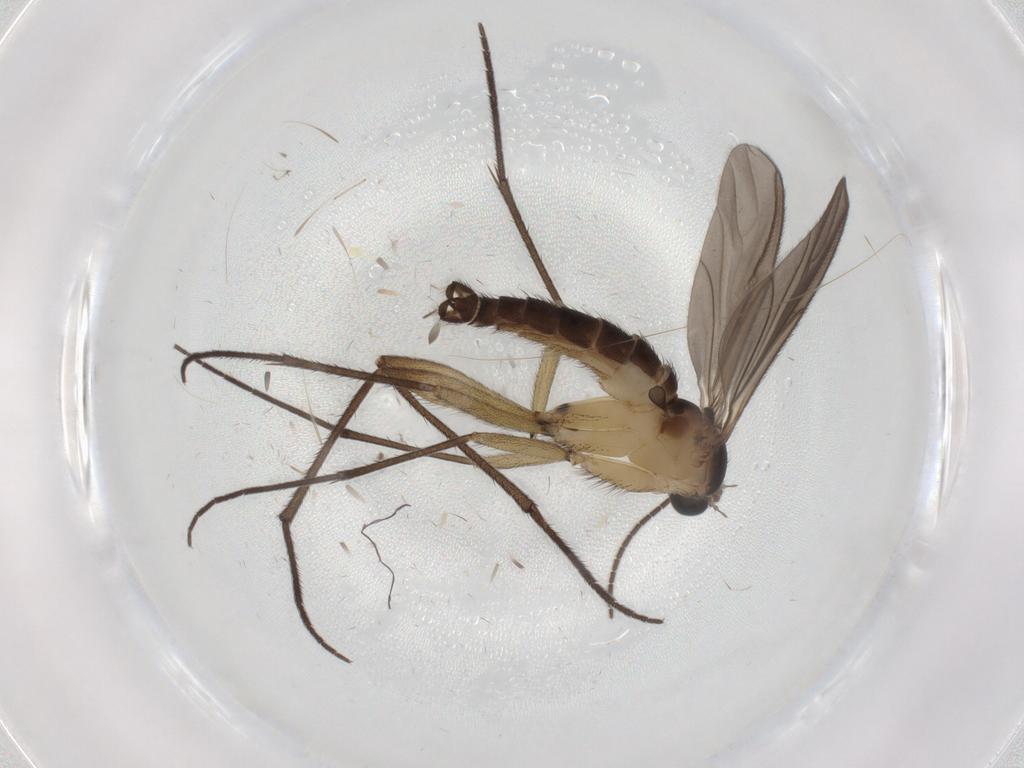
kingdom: Animalia
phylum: Arthropoda
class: Insecta
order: Diptera
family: Sciaridae
